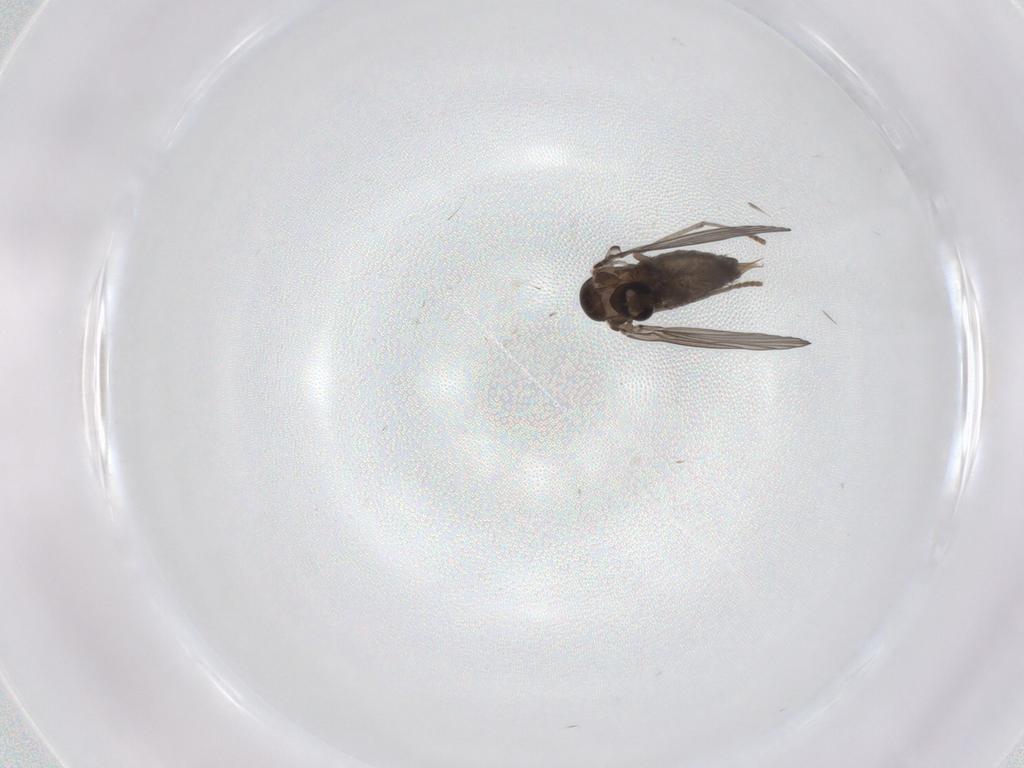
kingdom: Animalia
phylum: Arthropoda
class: Insecta
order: Diptera
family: Psychodidae
